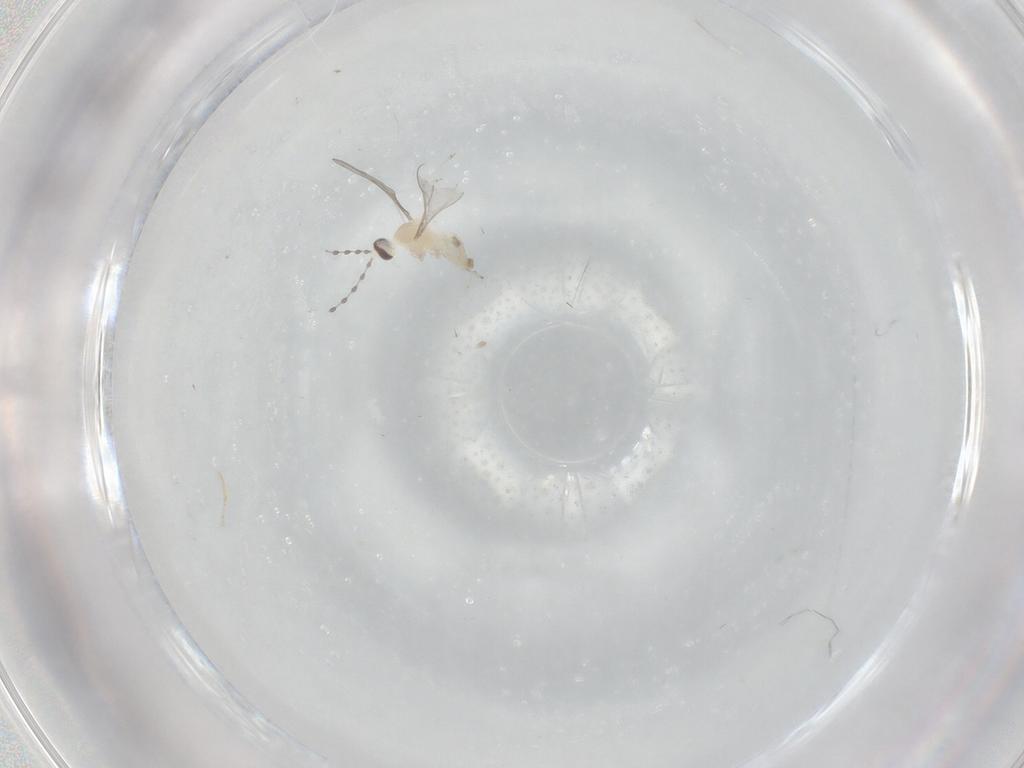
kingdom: Animalia
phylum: Arthropoda
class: Insecta
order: Diptera
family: Cecidomyiidae
